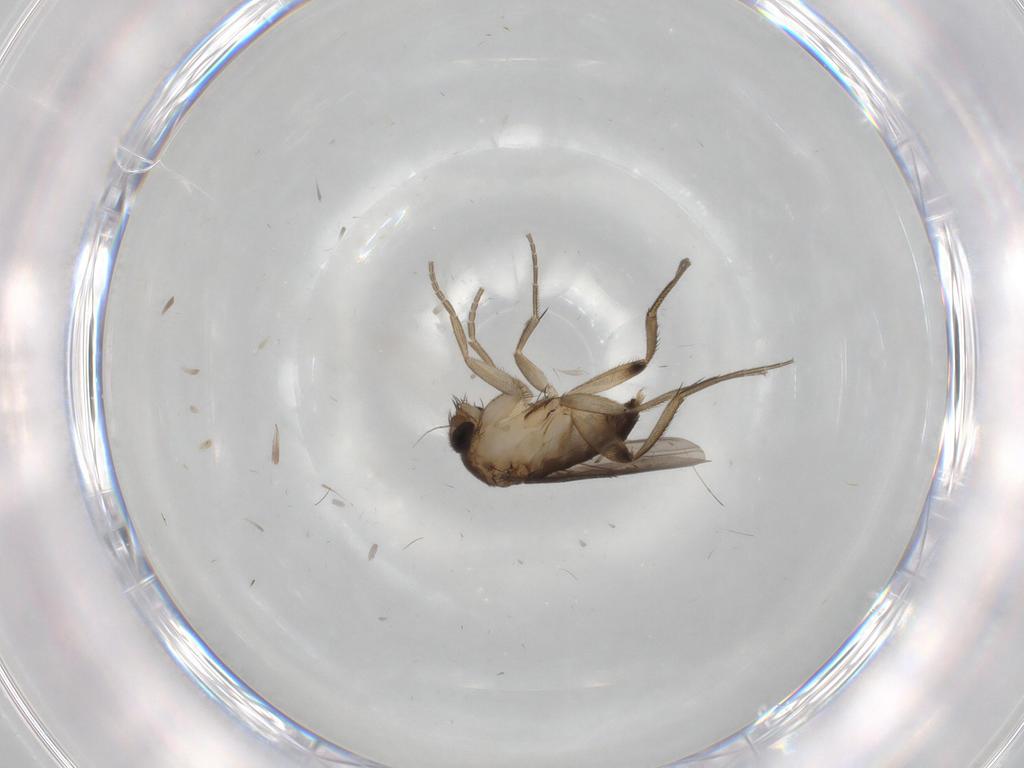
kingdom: Animalia
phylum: Arthropoda
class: Insecta
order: Diptera
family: Phoridae
